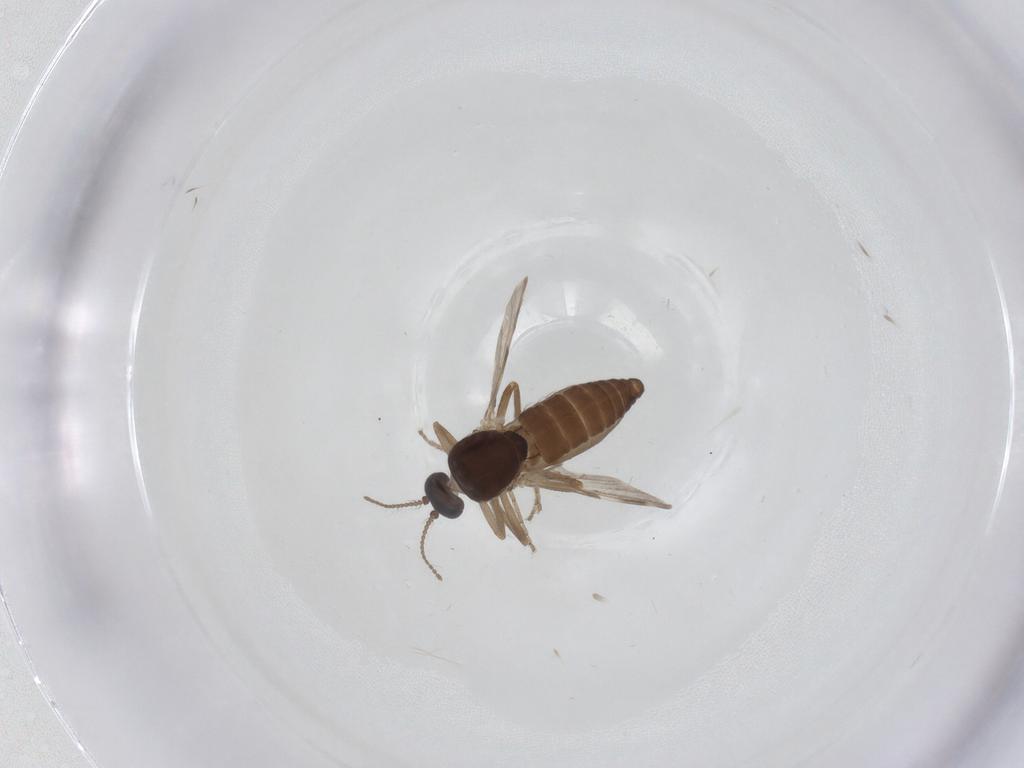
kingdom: Animalia
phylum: Arthropoda
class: Insecta
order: Diptera
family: Ceratopogonidae
